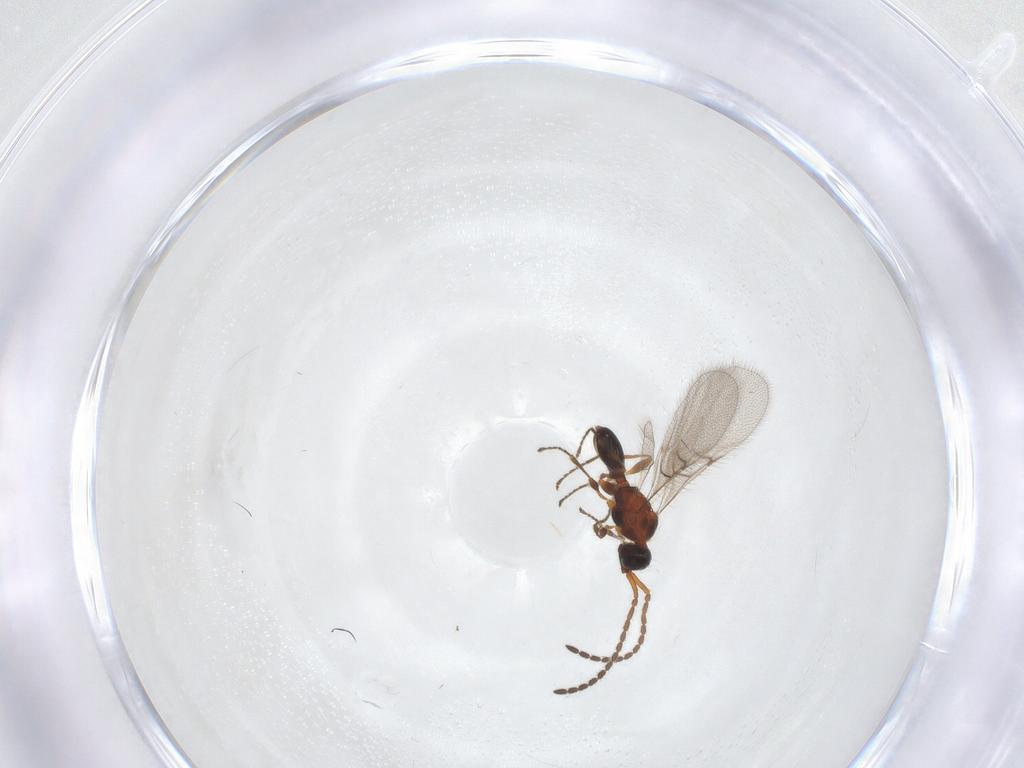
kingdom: Animalia
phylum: Arthropoda
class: Insecta
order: Hymenoptera
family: Diapriidae
